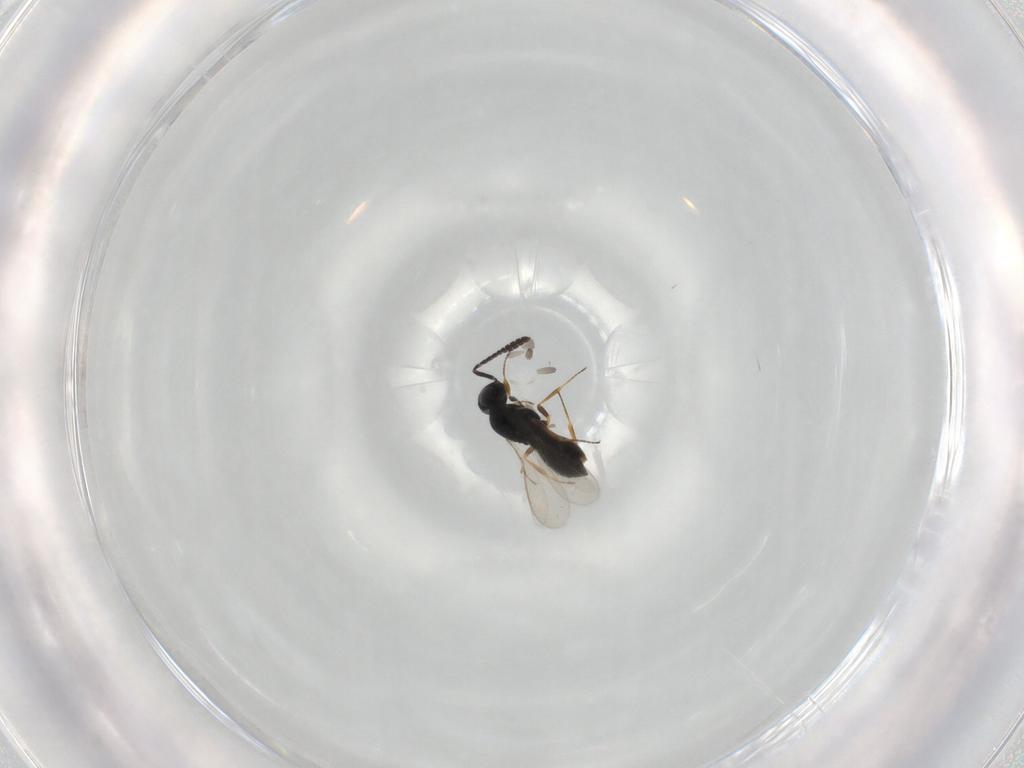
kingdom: Animalia
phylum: Arthropoda
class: Insecta
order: Hymenoptera
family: Scelionidae
